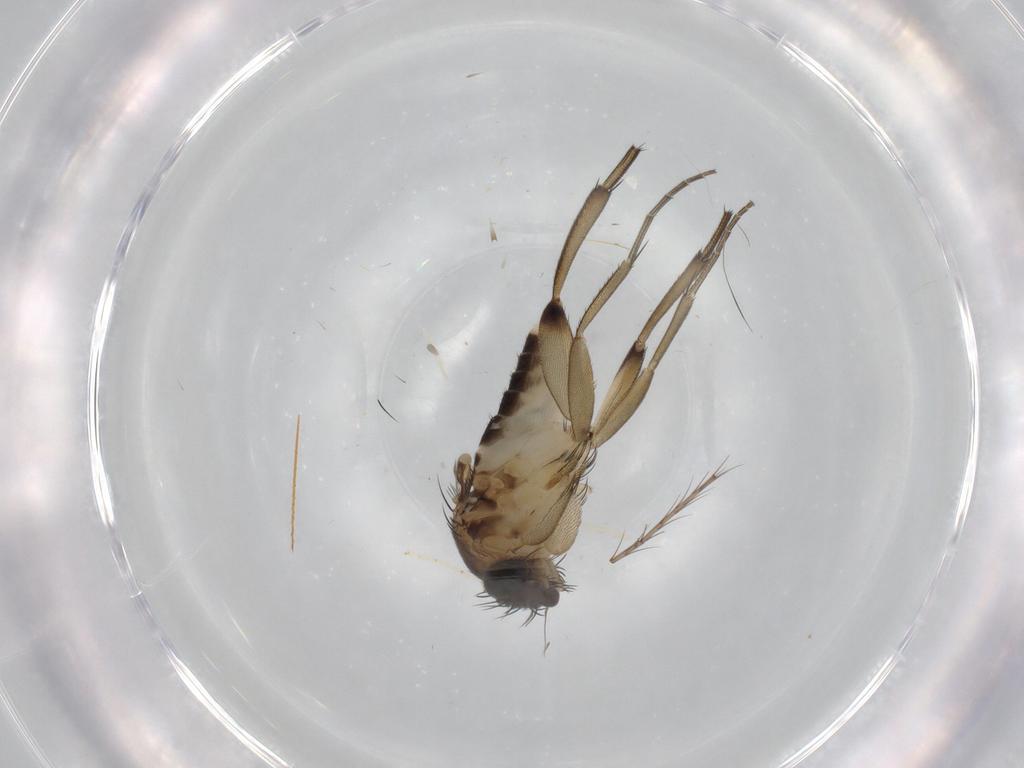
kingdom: Animalia
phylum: Arthropoda
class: Insecta
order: Diptera
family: Phoridae
